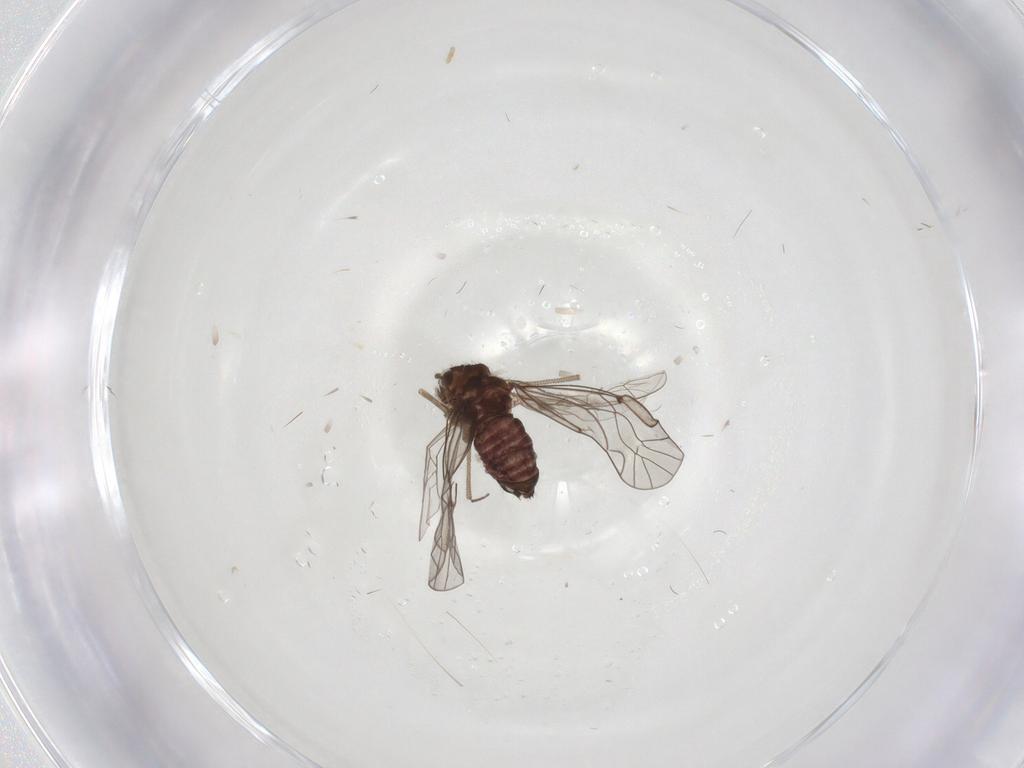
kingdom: Animalia
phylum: Arthropoda
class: Insecta
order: Psocodea
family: Lachesillidae
